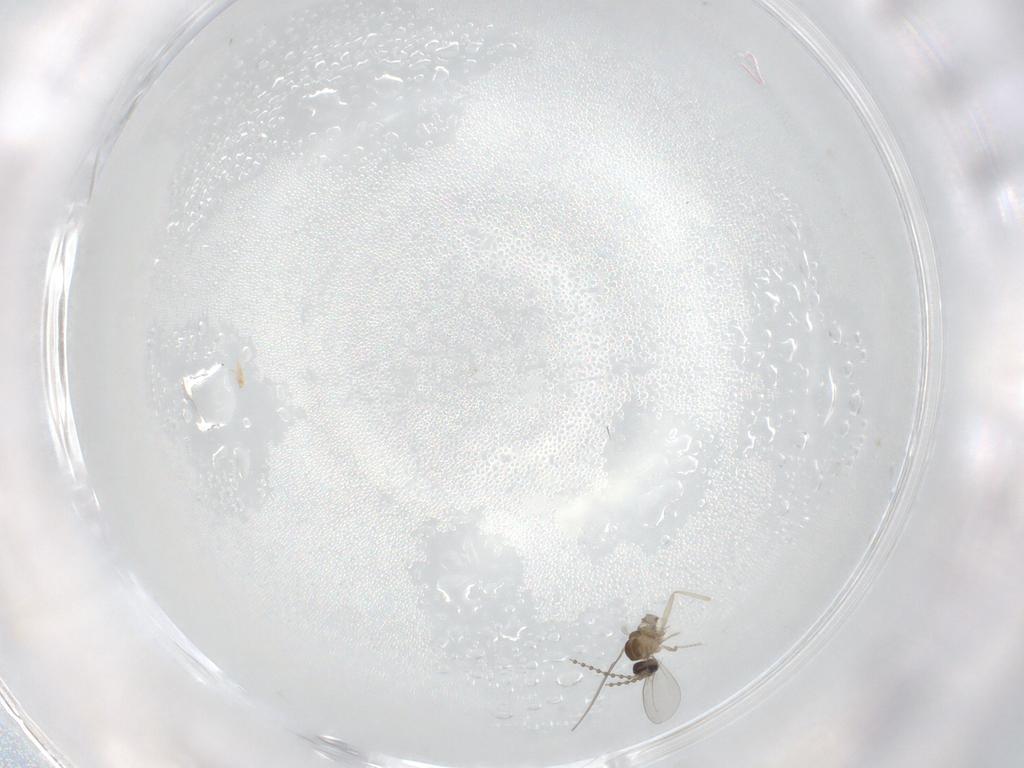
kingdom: Animalia
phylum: Arthropoda
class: Insecta
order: Diptera
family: Cecidomyiidae
